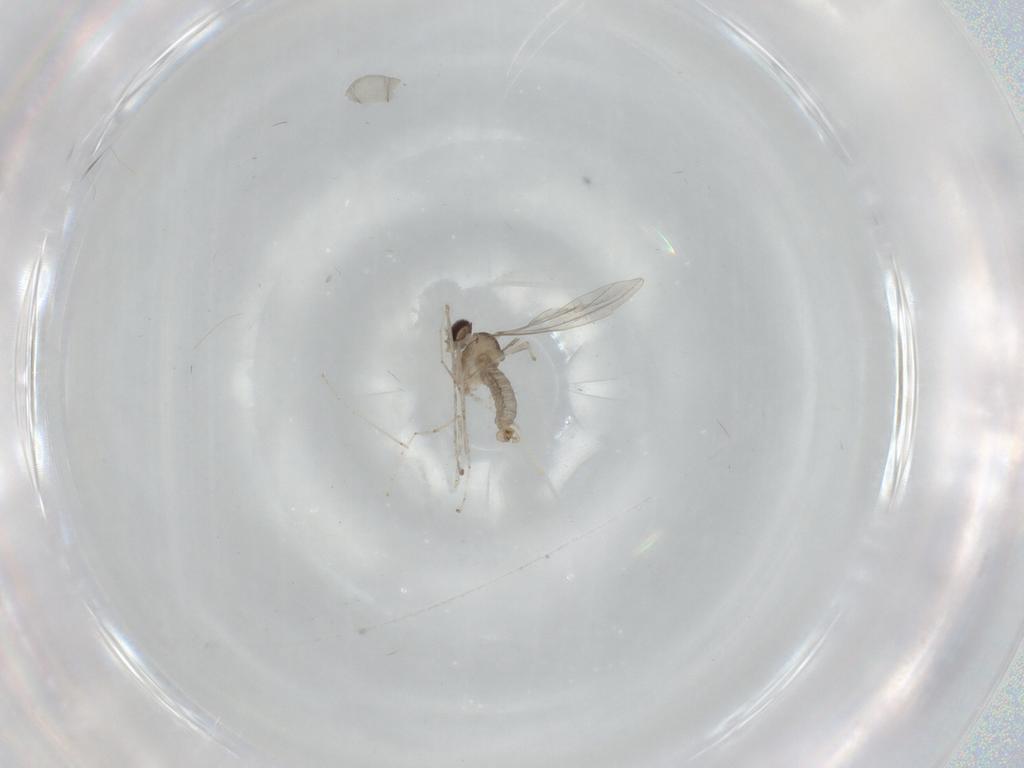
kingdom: Animalia
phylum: Arthropoda
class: Insecta
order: Diptera
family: Cecidomyiidae
